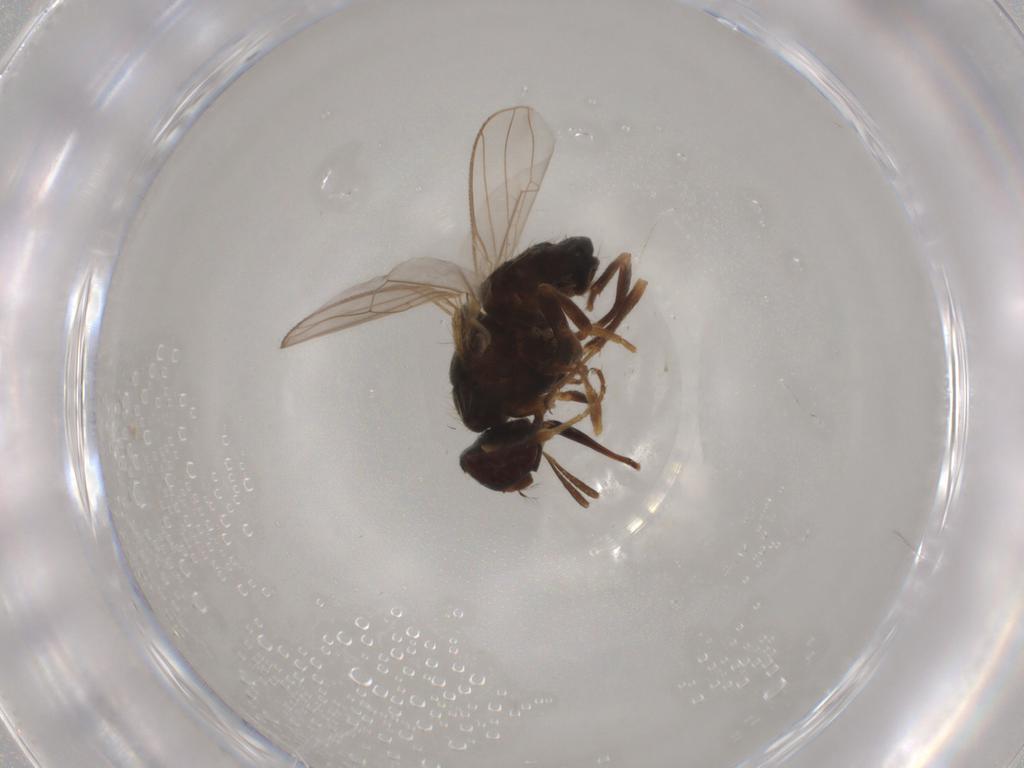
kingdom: Animalia
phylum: Arthropoda
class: Insecta
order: Diptera
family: Muscidae
